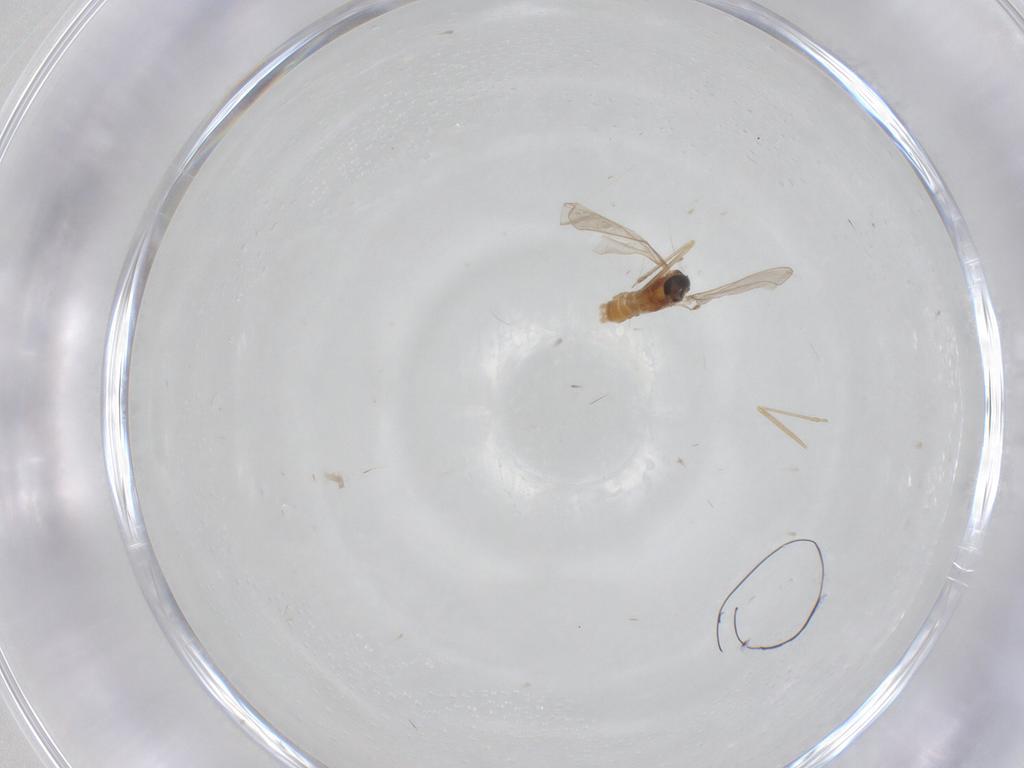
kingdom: Animalia
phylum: Arthropoda
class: Insecta
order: Diptera
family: Cecidomyiidae
